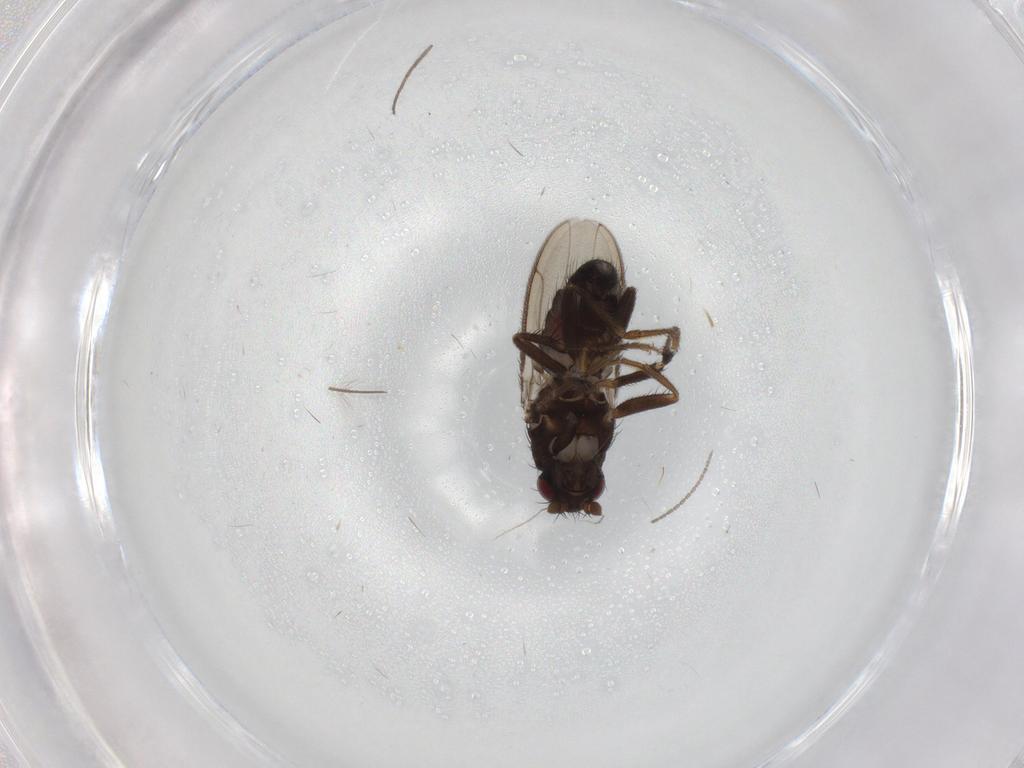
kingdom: Animalia
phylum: Arthropoda
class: Insecta
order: Diptera
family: Sphaeroceridae
